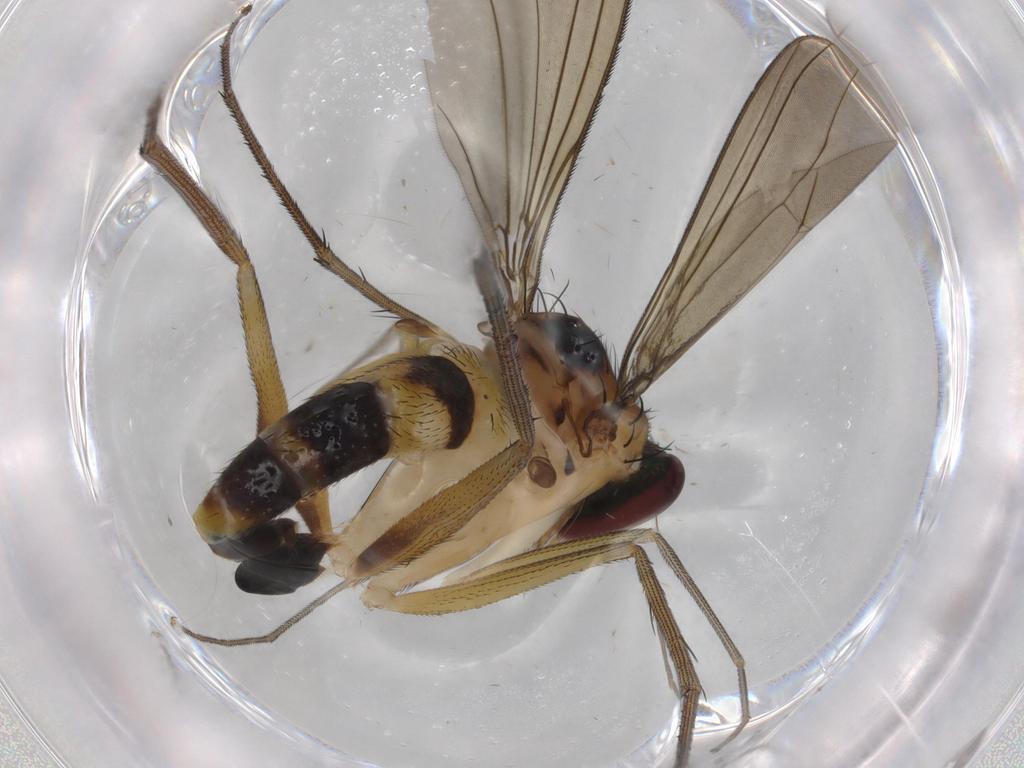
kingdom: Animalia
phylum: Arthropoda
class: Insecta
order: Diptera
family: Dolichopodidae
